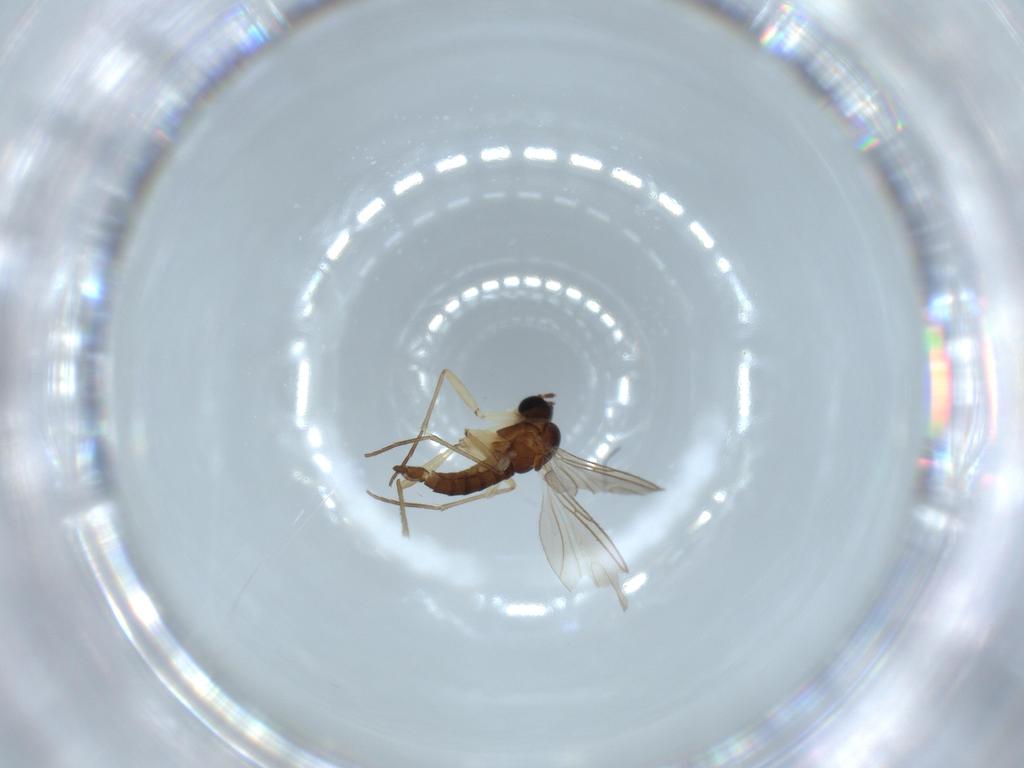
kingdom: Animalia
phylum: Arthropoda
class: Insecta
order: Diptera
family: Sciaridae
